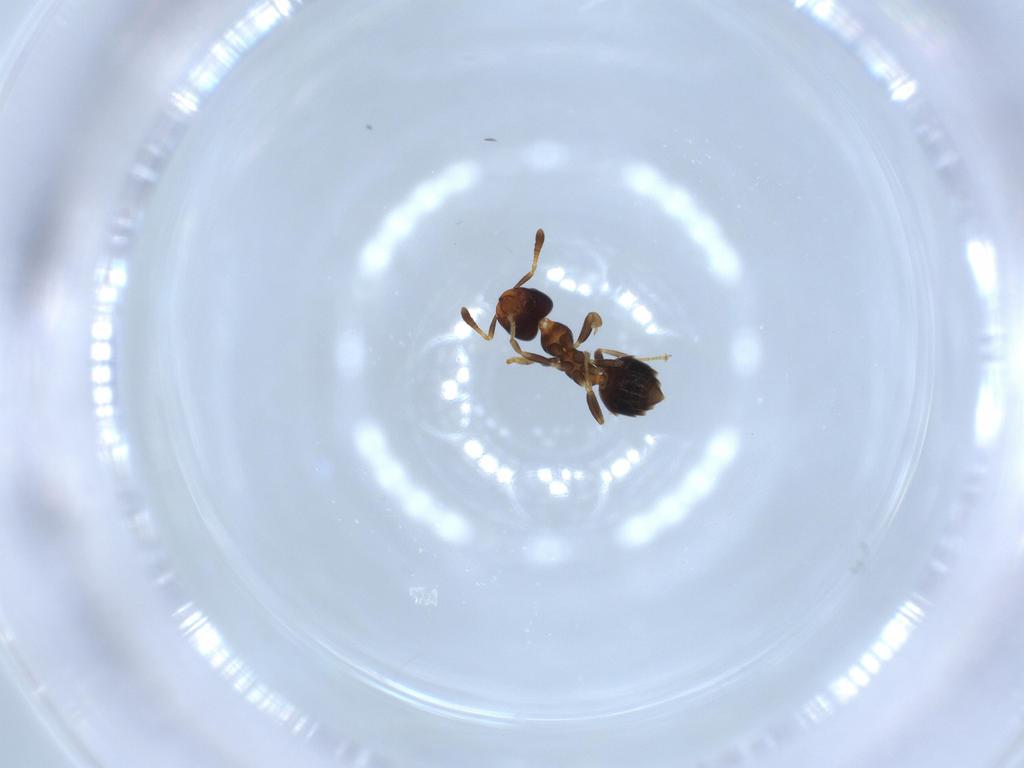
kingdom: Animalia
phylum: Arthropoda
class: Insecta
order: Hymenoptera
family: Formicidae
